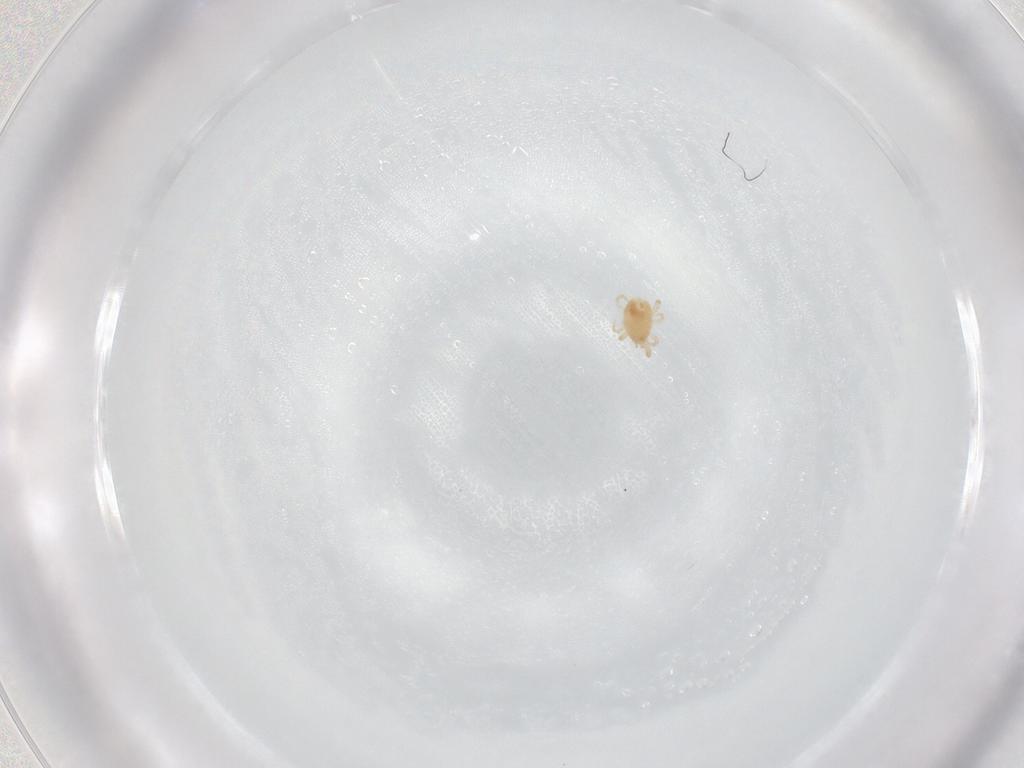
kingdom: Animalia
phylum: Arthropoda
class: Arachnida
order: Mesostigmata
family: Phytoseiidae
